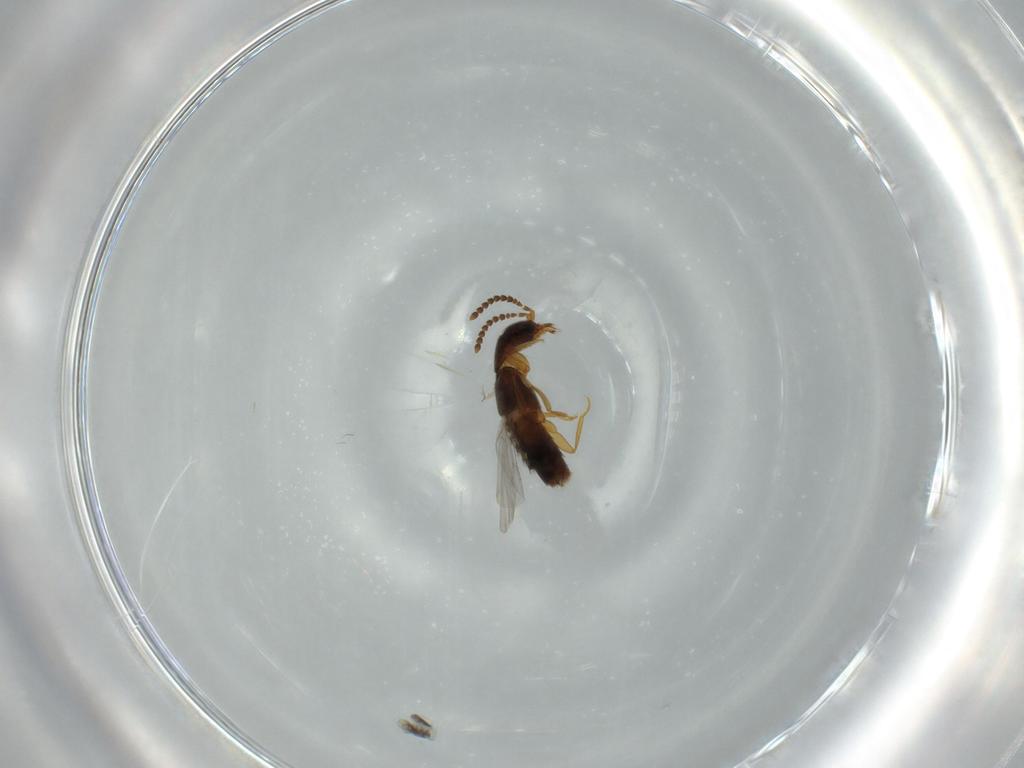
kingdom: Animalia
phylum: Arthropoda
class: Insecta
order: Coleoptera
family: Staphylinidae
